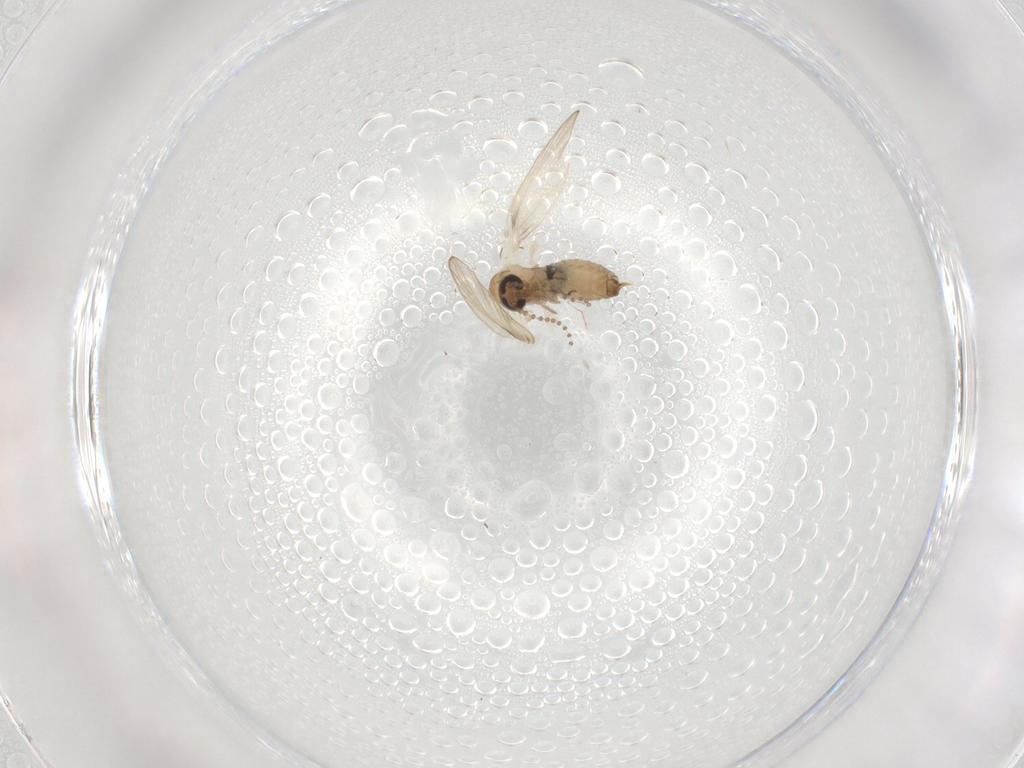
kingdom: Animalia
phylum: Arthropoda
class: Insecta
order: Diptera
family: Psychodidae
